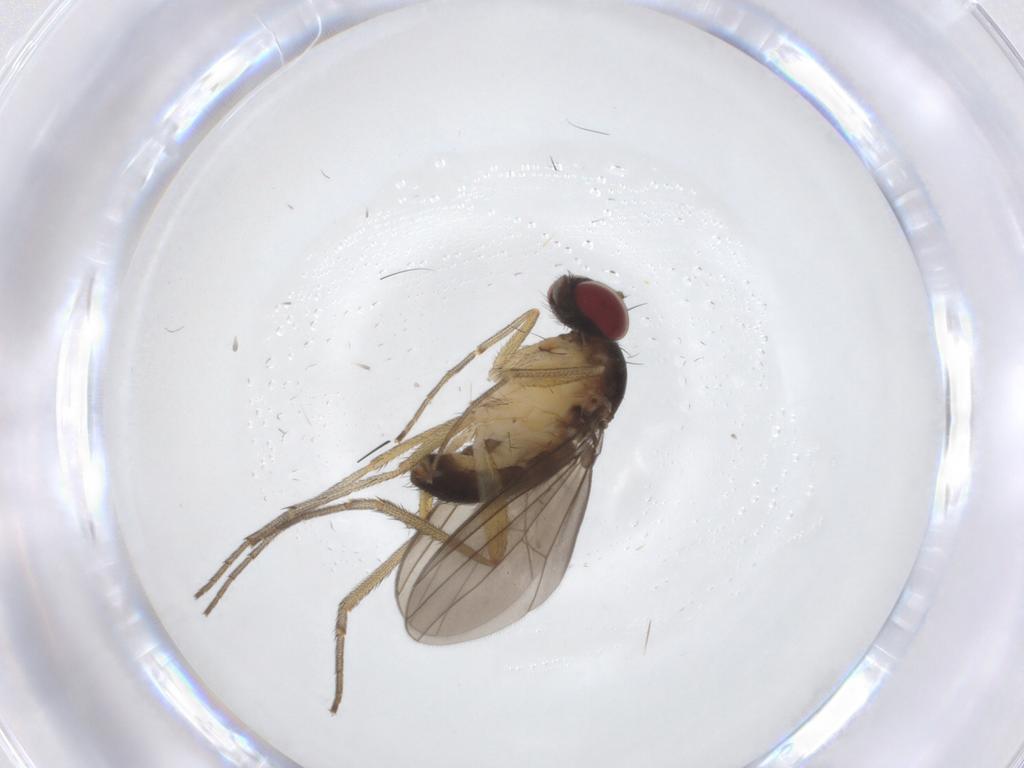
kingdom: Animalia
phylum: Arthropoda
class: Insecta
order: Diptera
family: Dolichopodidae
